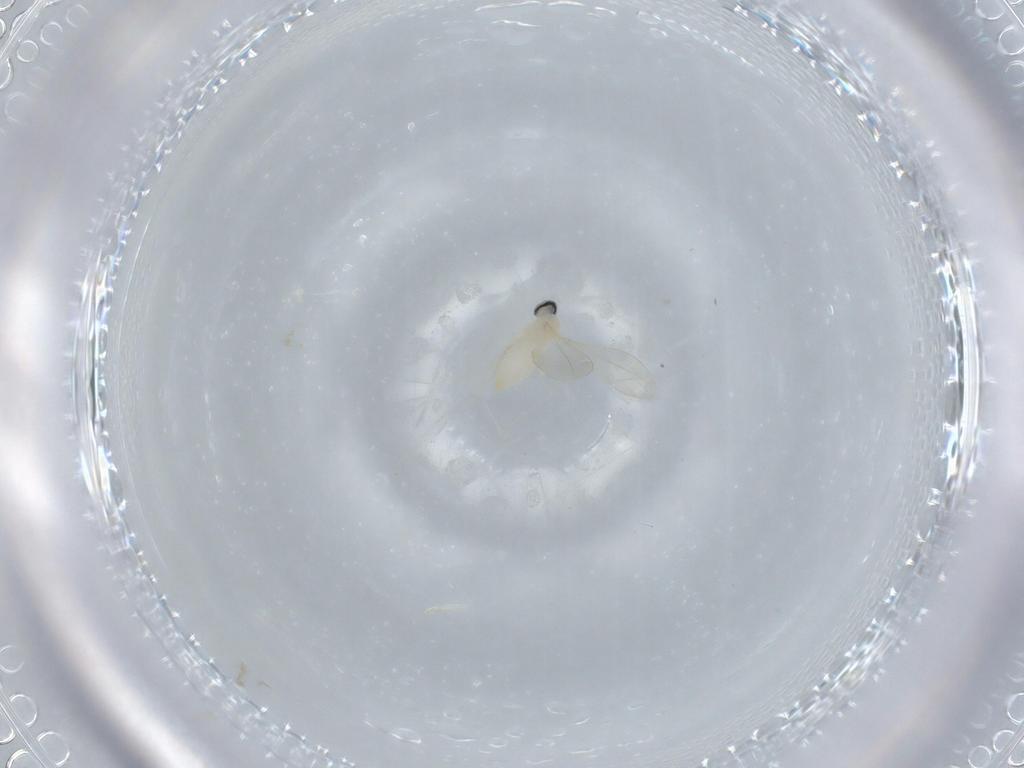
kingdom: Animalia
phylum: Arthropoda
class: Insecta
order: Diptera
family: Cecidomyiidae
